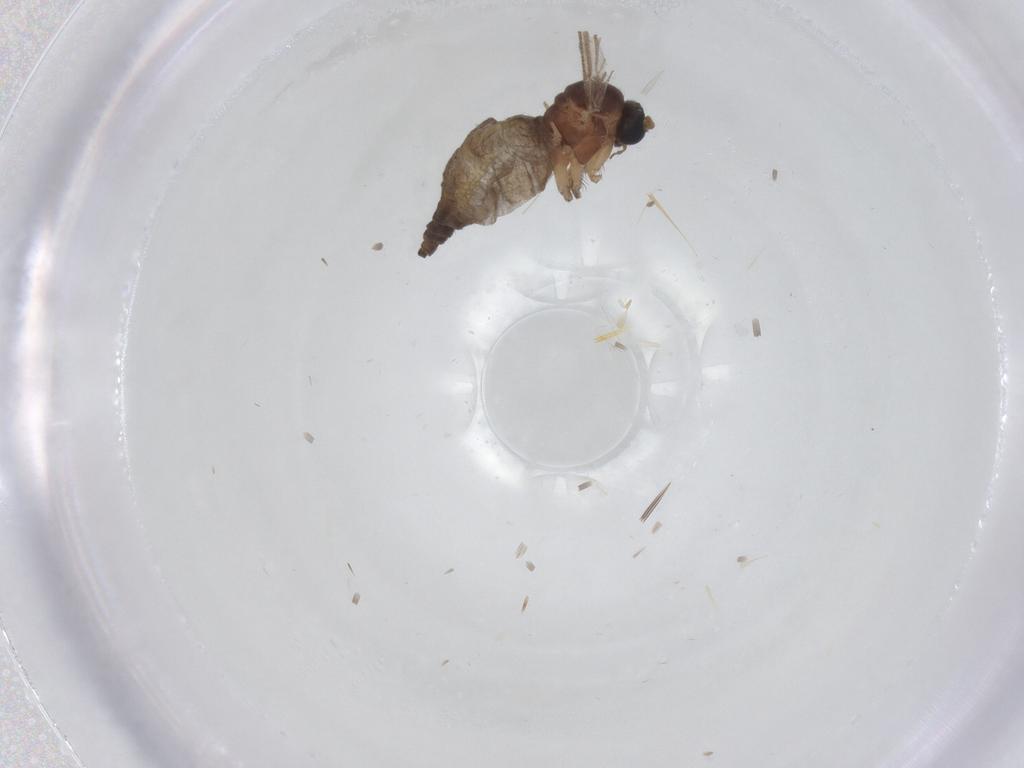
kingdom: Animalia
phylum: Arthropoda
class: Insecta
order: Diptera
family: Sciaridae
